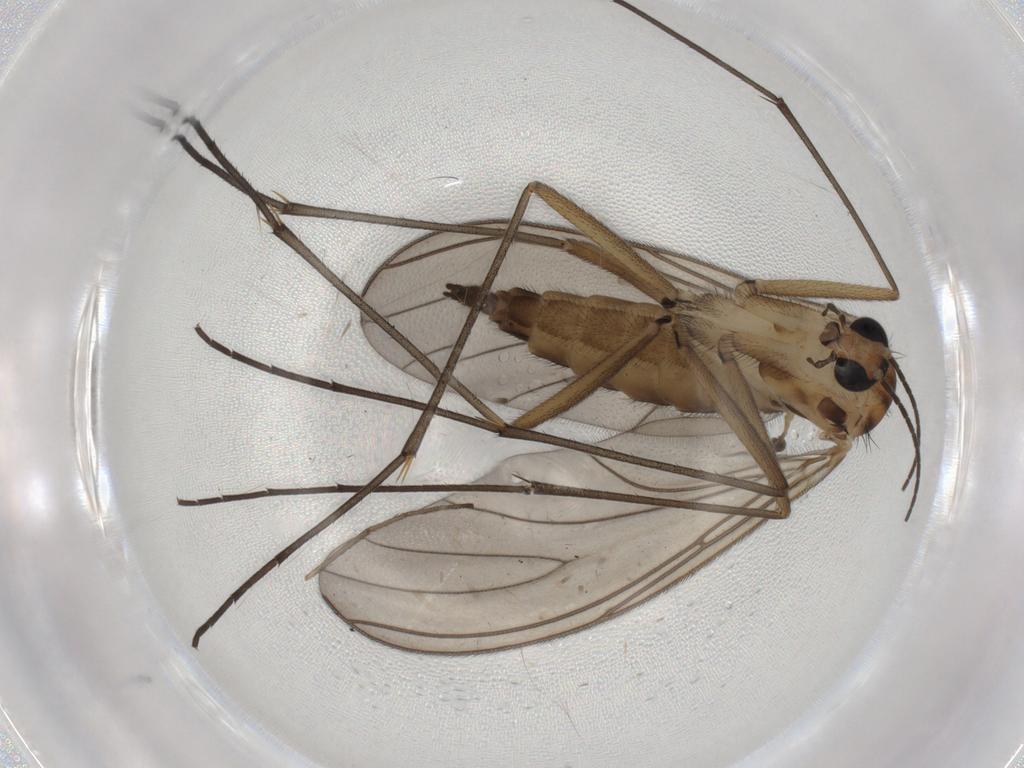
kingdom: Animalia
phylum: Arthropoda
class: Insecta
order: Diptera
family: Sciaridae
